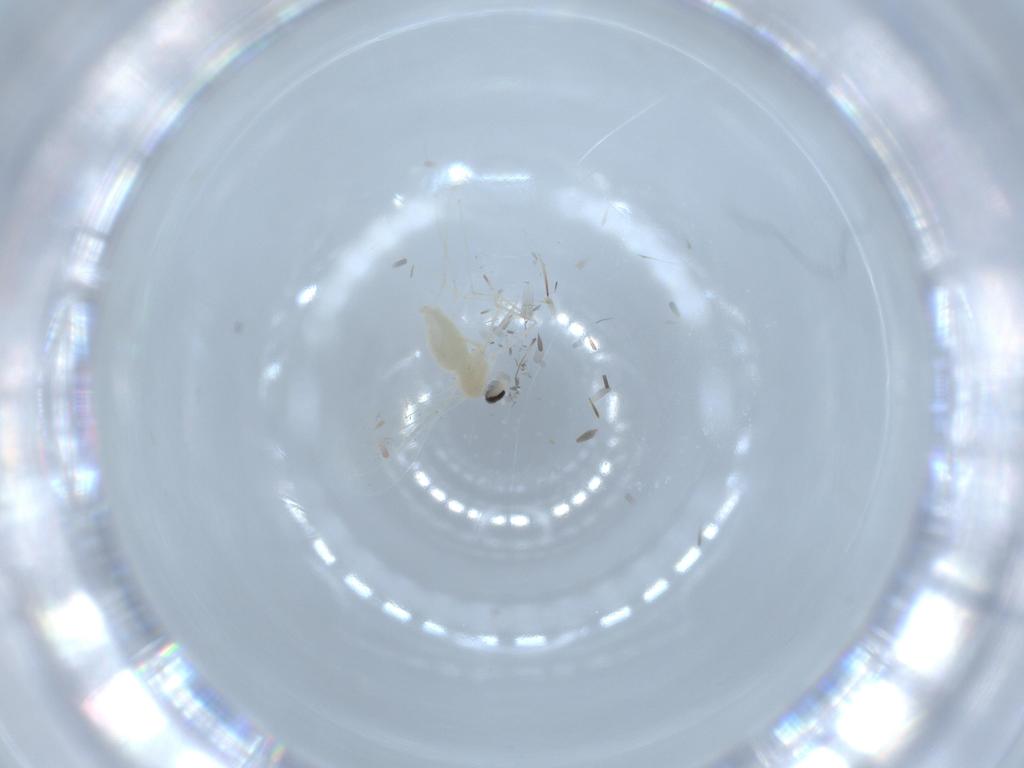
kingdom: Animalia
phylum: Arthropoda
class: Insecta
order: Diptera
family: Cecidomyiidae
